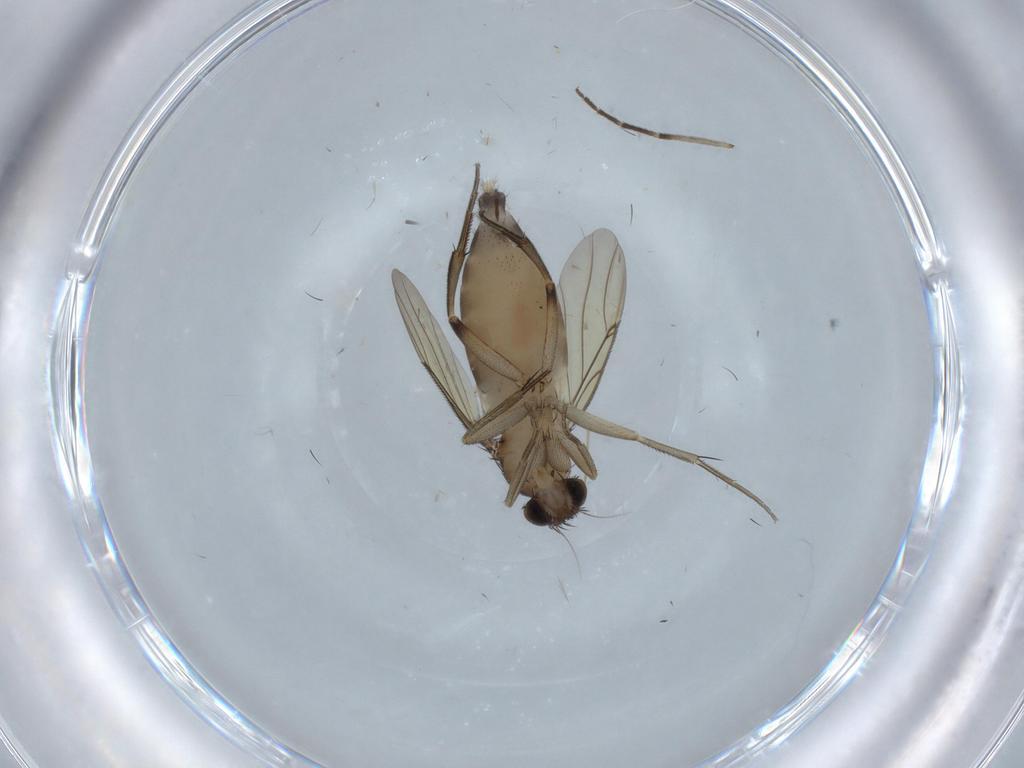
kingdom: Animalia
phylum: Arthropoda
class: Insecta
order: Diptera
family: Phoridae
